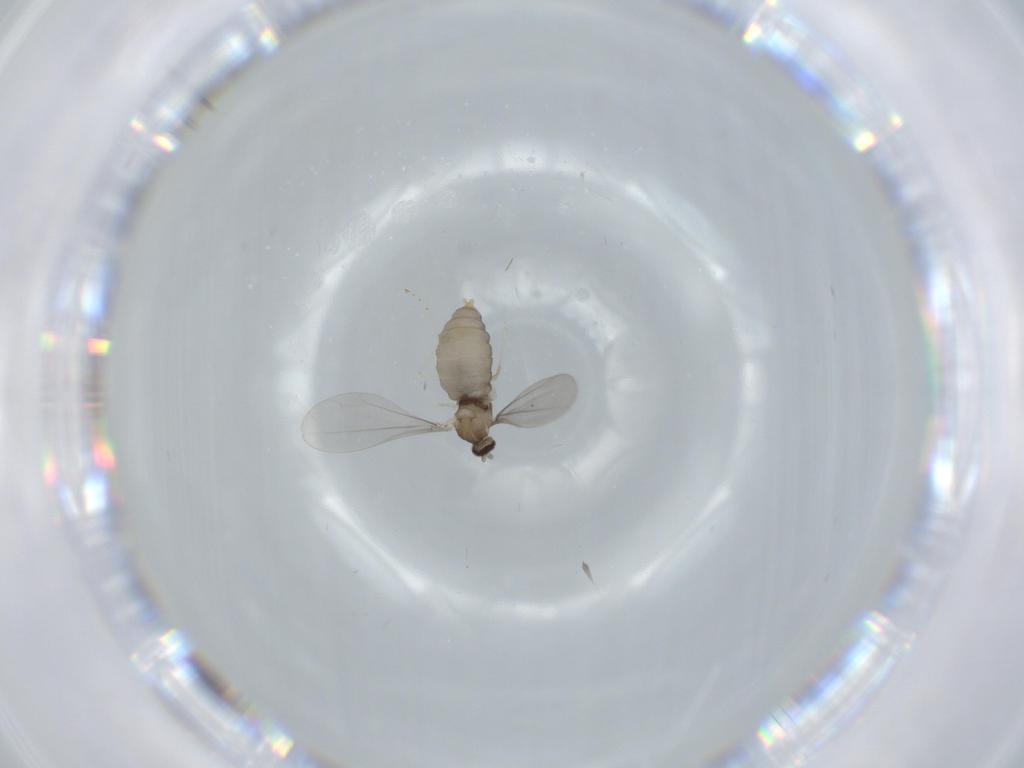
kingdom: Animalia
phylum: Arthropoda
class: Insecta
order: Diptera
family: Cecidomyiidae
